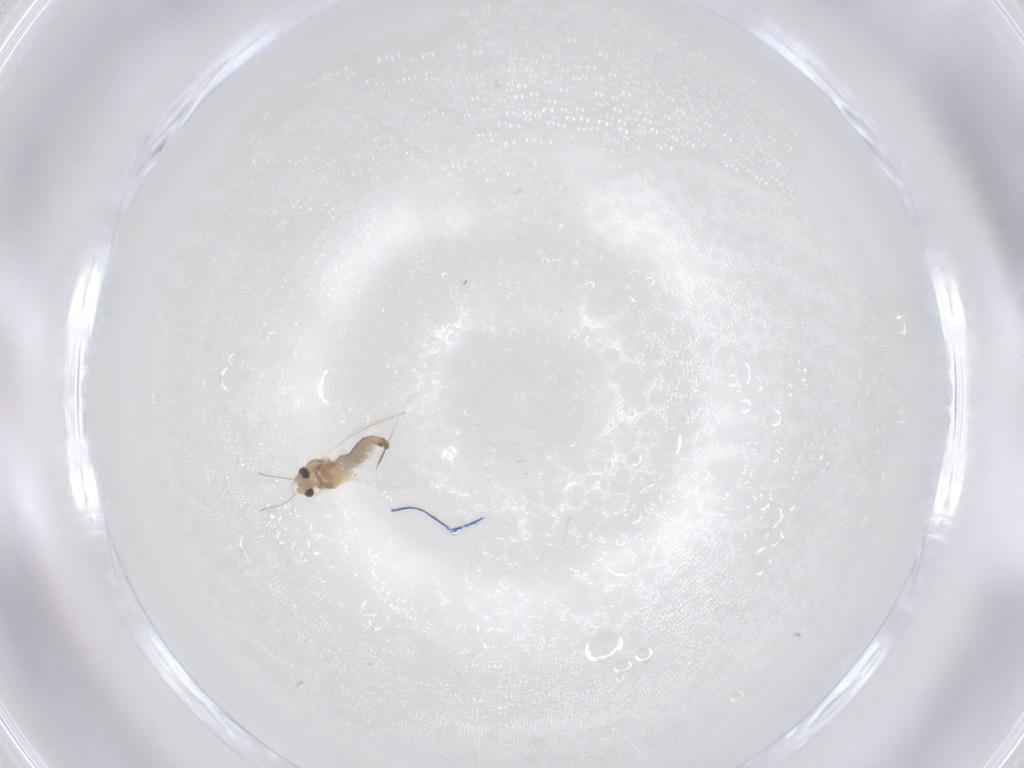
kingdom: Animalia
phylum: Arthropoda
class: Insecta
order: Diptera
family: Chironomidae
